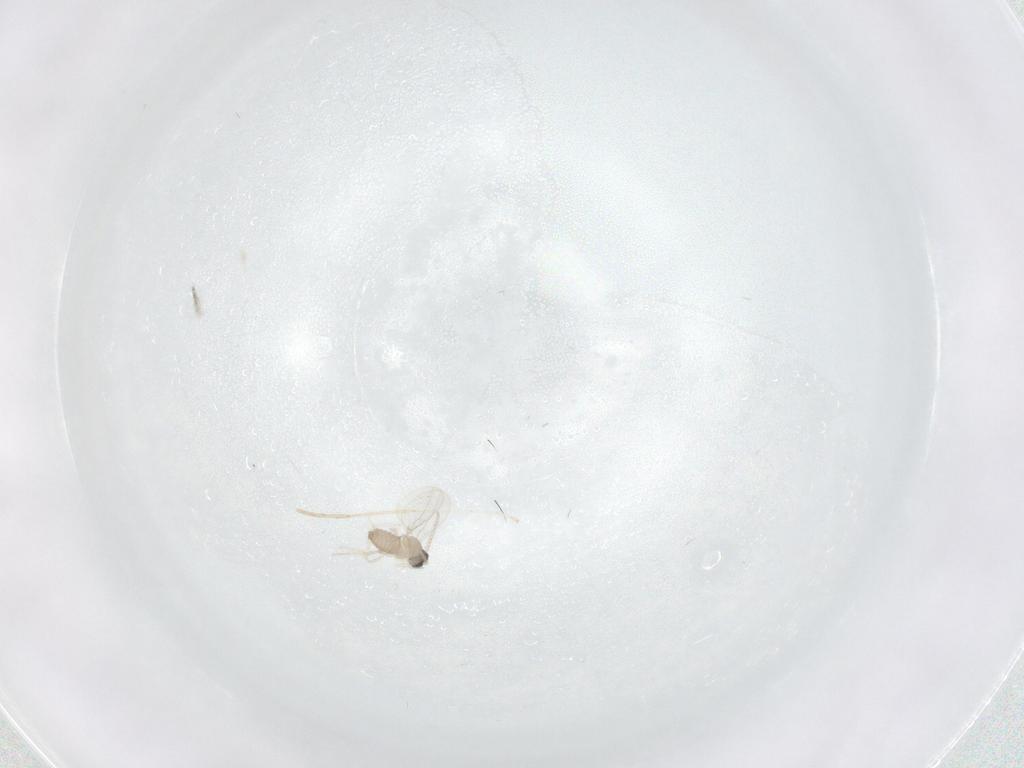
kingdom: Animalia
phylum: Arthropoda
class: Insecta
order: Diptera
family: Cecidomyiidae
